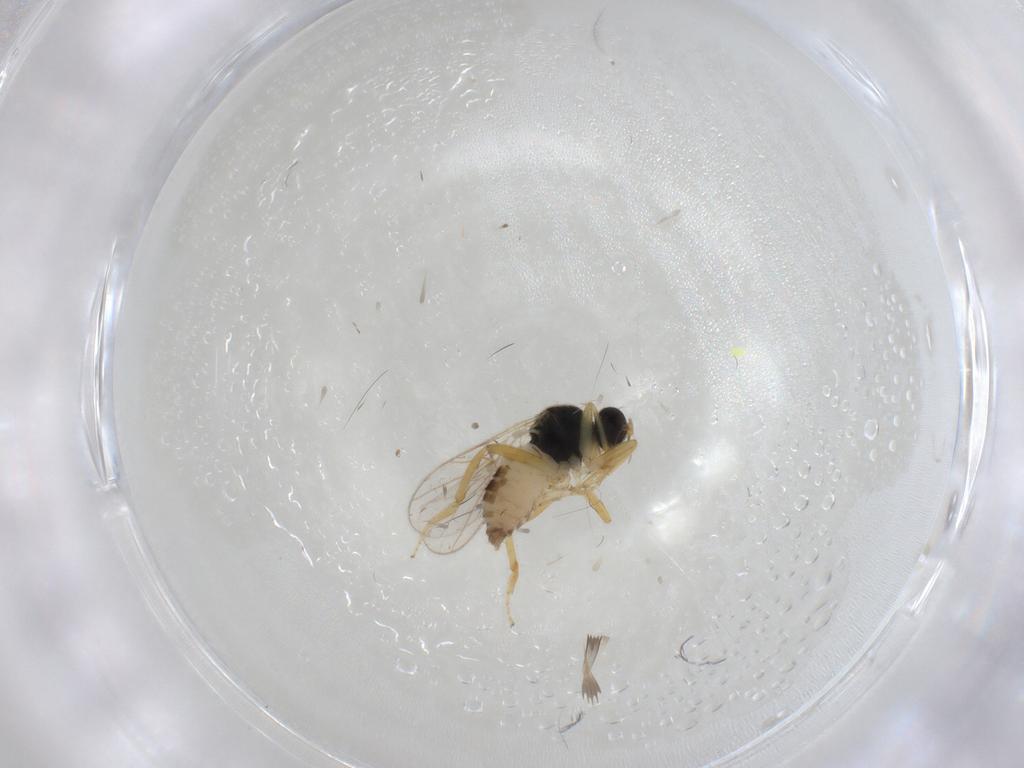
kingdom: Animalia
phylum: Arthropoda
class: Insecta
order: Diptera
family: Hybotidae
